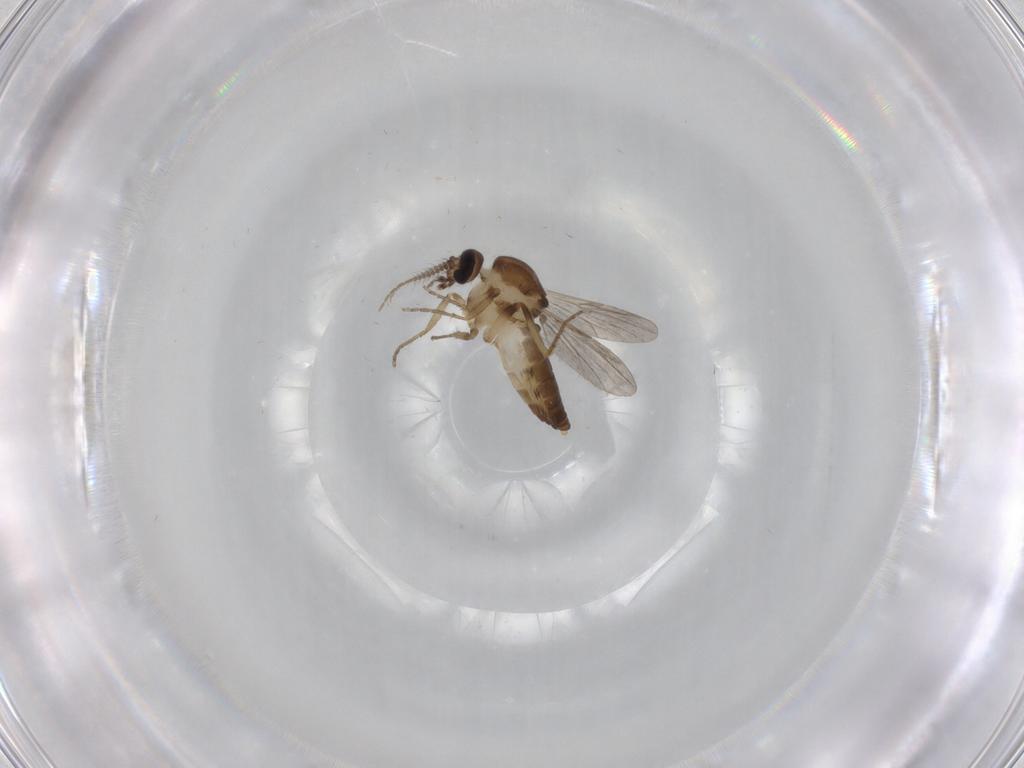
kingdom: Animalia
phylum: Arthropoda
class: Insecta
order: Diptera
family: Ceratopogonidae
